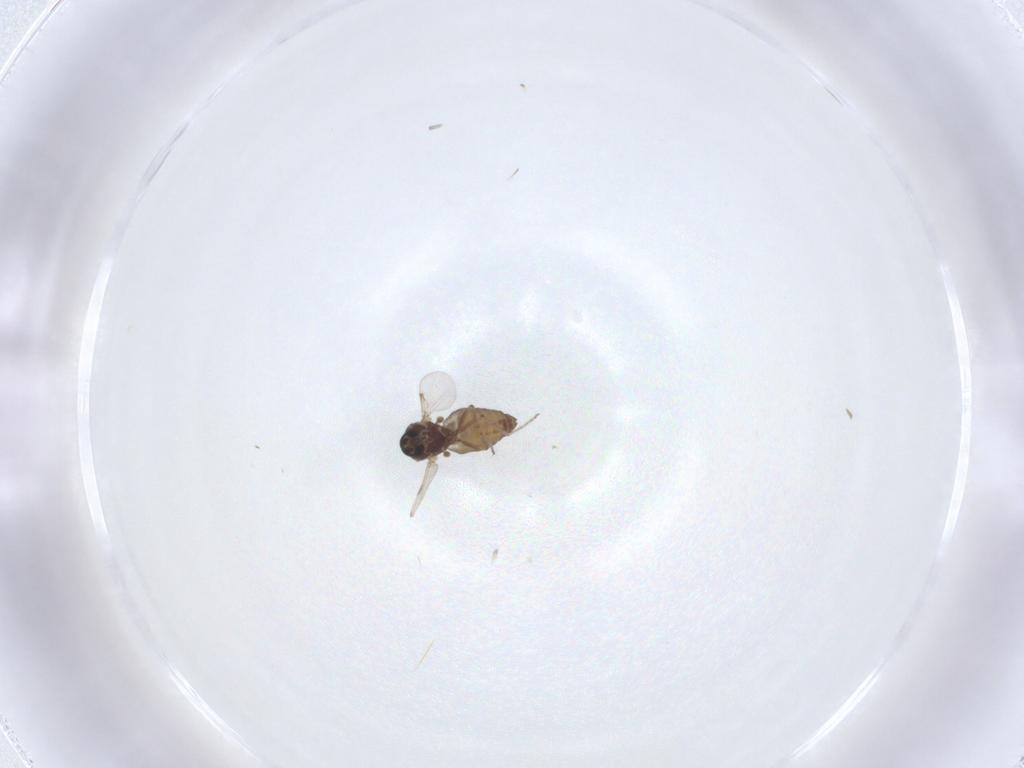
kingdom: Animalia
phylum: Arthropoda
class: Insecta
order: Diptera
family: Ceratopogonidae
